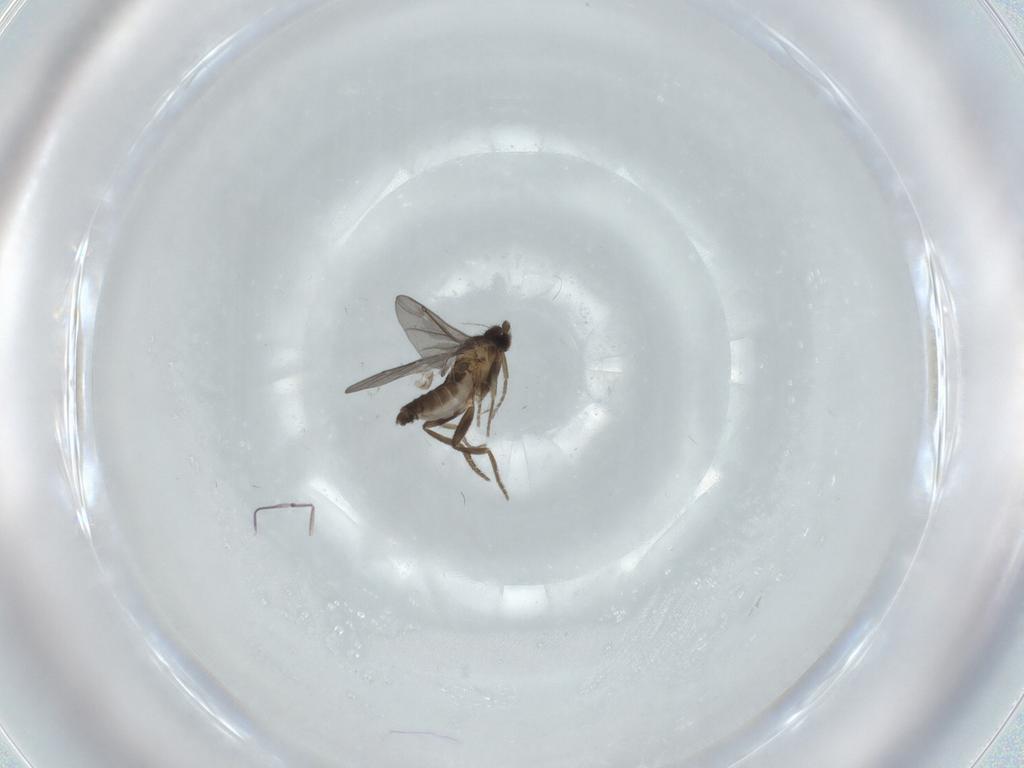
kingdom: Animalia
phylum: Arthropoda
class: Insecta
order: Diptera
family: Chironomidae
